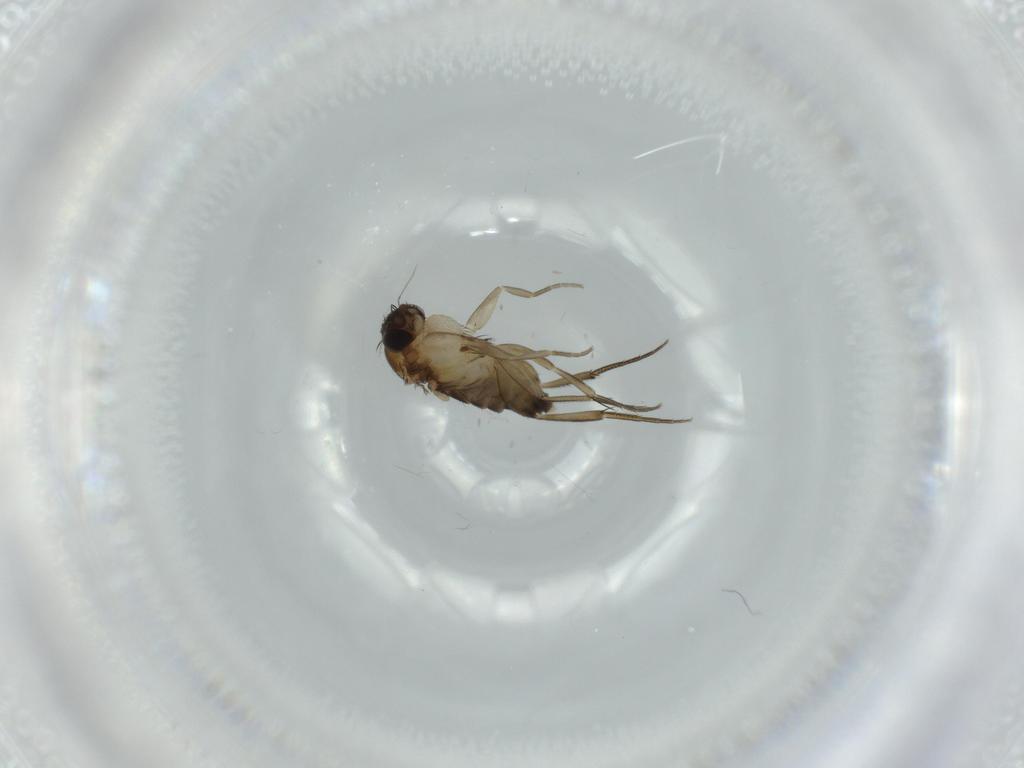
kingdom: Animalia
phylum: Arthropoda
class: Insecta
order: Diptera
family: Phoridae
